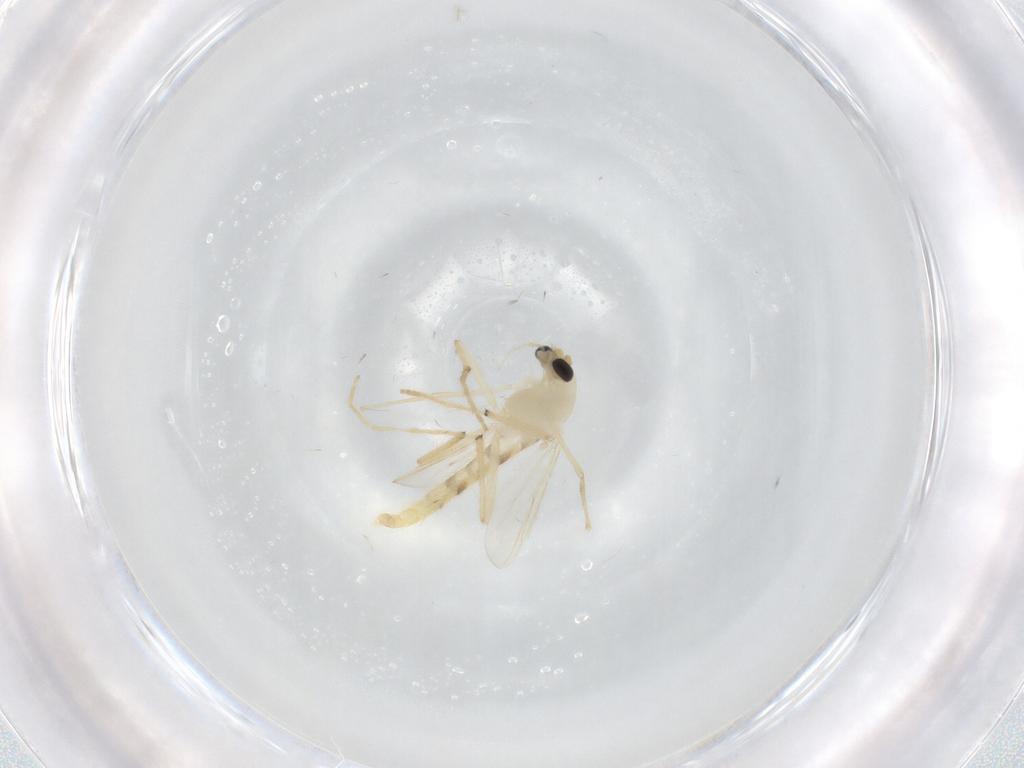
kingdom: Animalia
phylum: Arthropoda
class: Insecta
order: Diptera
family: Chironomidae
